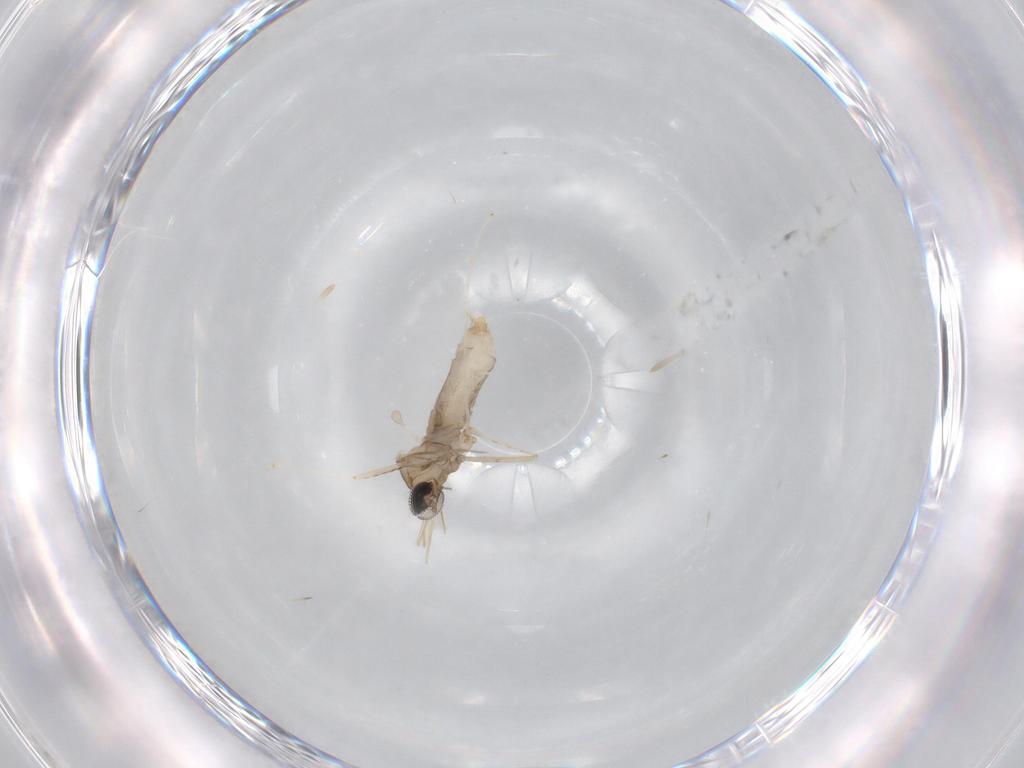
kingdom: Animalia
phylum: Arthropoda
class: Insecta
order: Diptera
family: Cecidomyiidae
